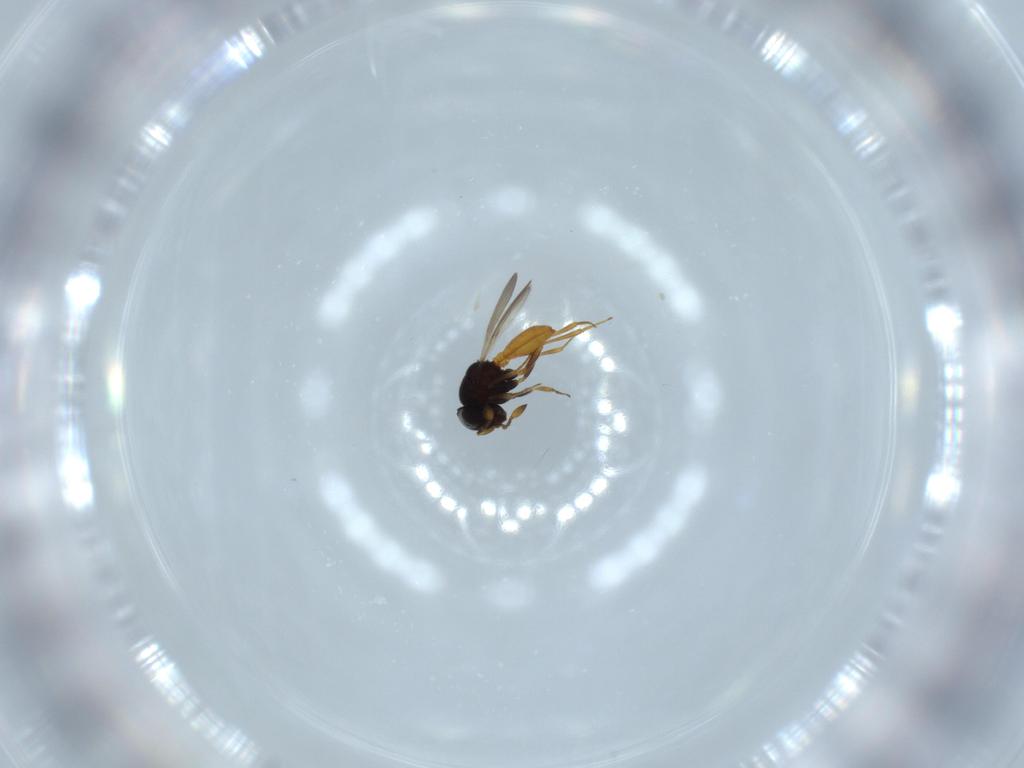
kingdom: Animalia
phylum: Arthropoda
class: Insecta
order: Hymenoptera
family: Scelionidae
